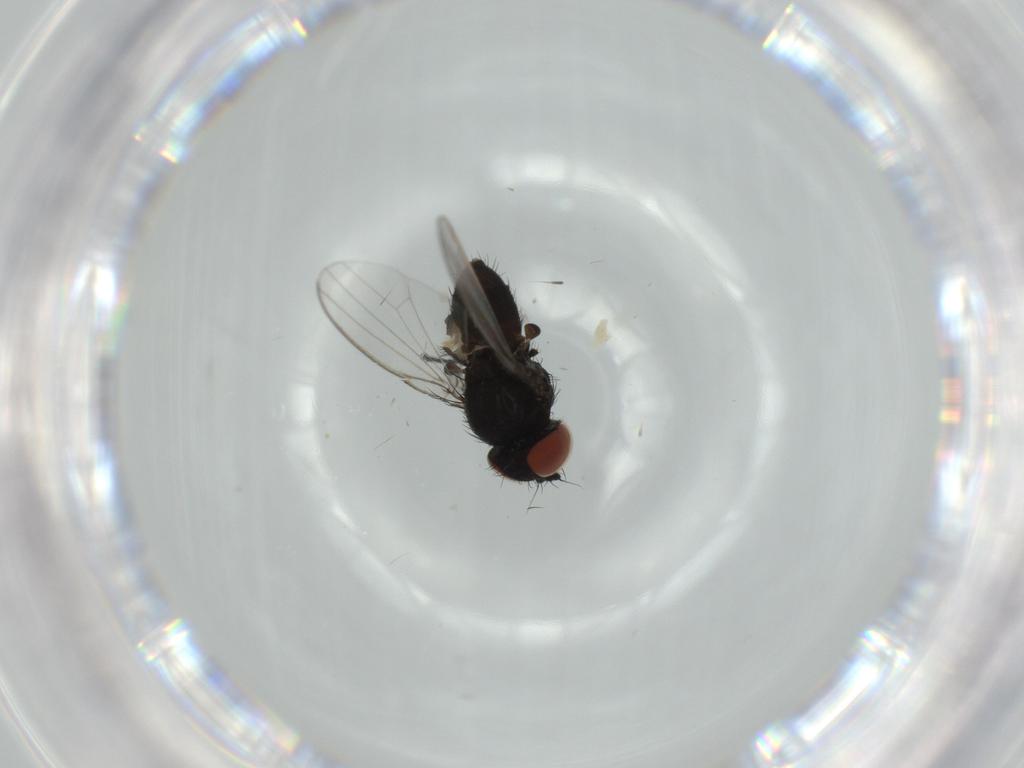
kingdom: Animalia
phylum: Arthropoda
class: Insecta
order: Diptera
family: Milichiidae
